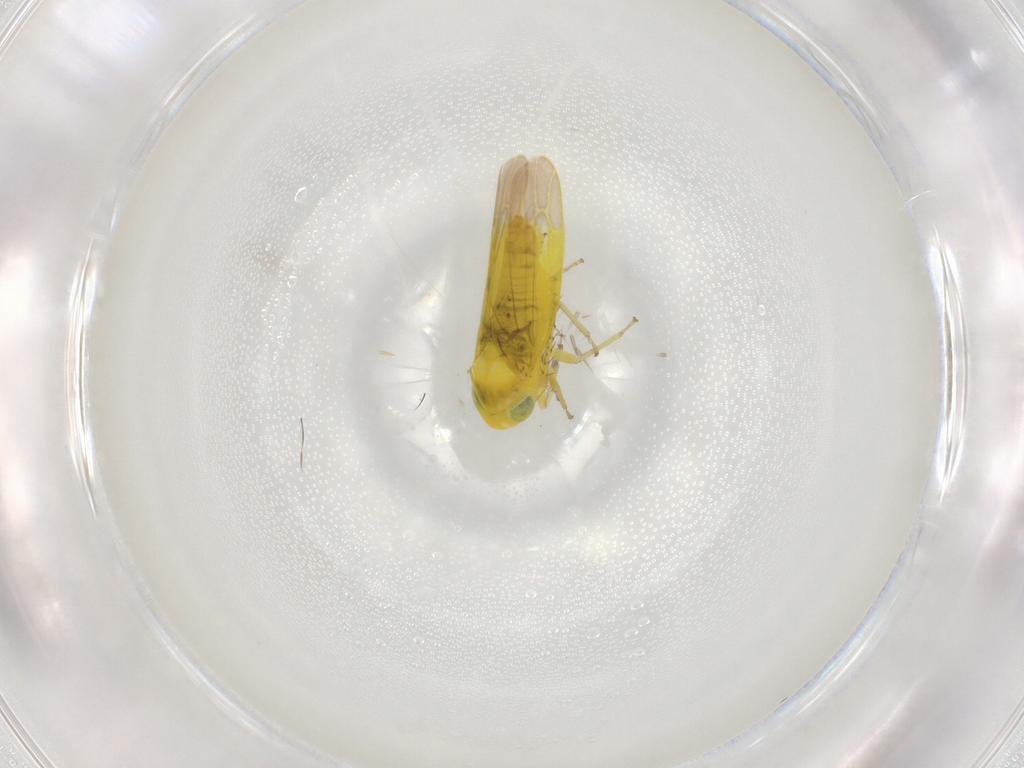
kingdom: Animalia
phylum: Arthropoda
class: Insecta
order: Hemiptera
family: Cicadellidae
